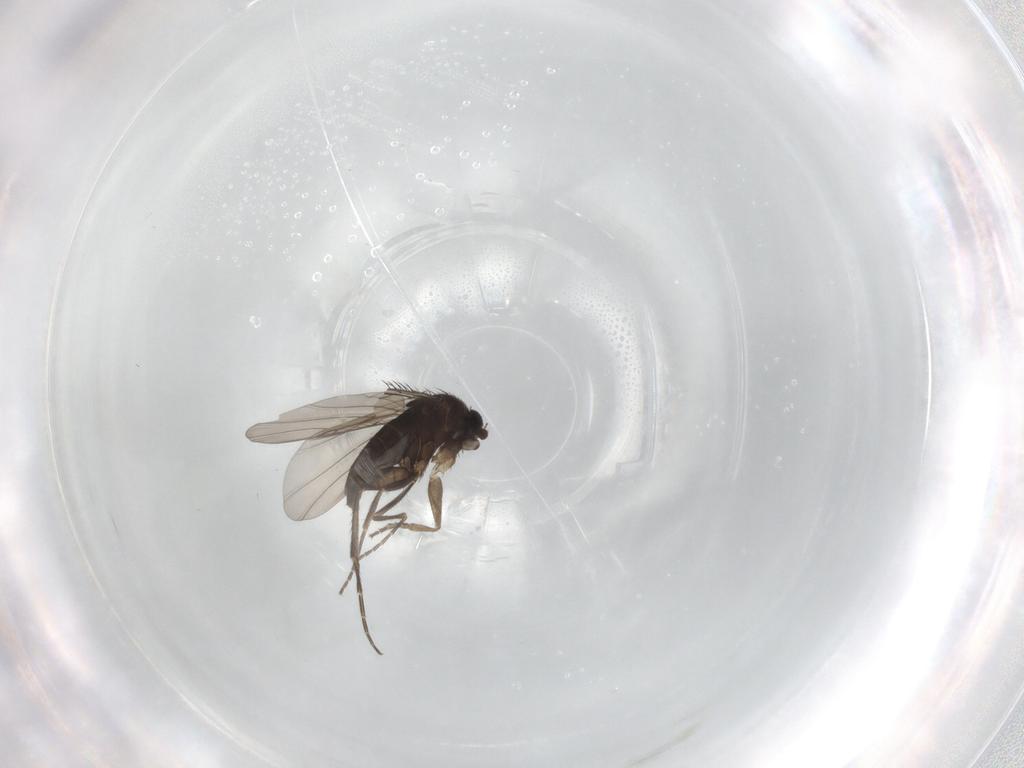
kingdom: Animalia
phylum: Arthropoda
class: Insecta
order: Diptera
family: Phoridae
